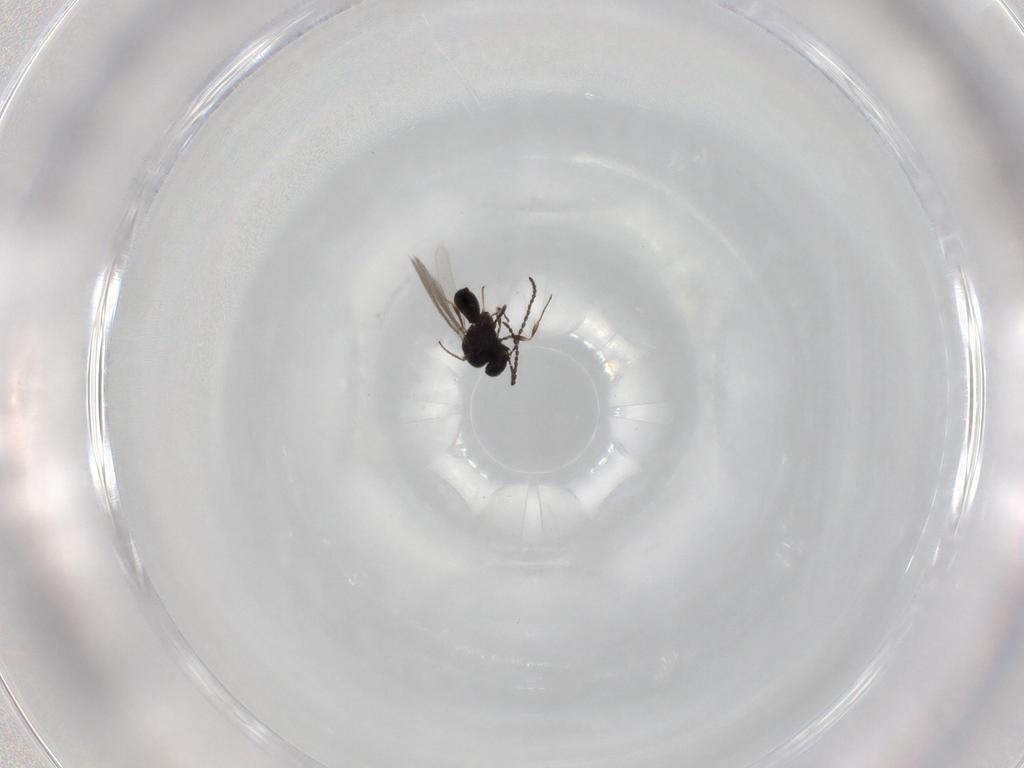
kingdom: Animalia
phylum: Arthropoda
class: Insecta
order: Hymenoptera
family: Scelionidae
